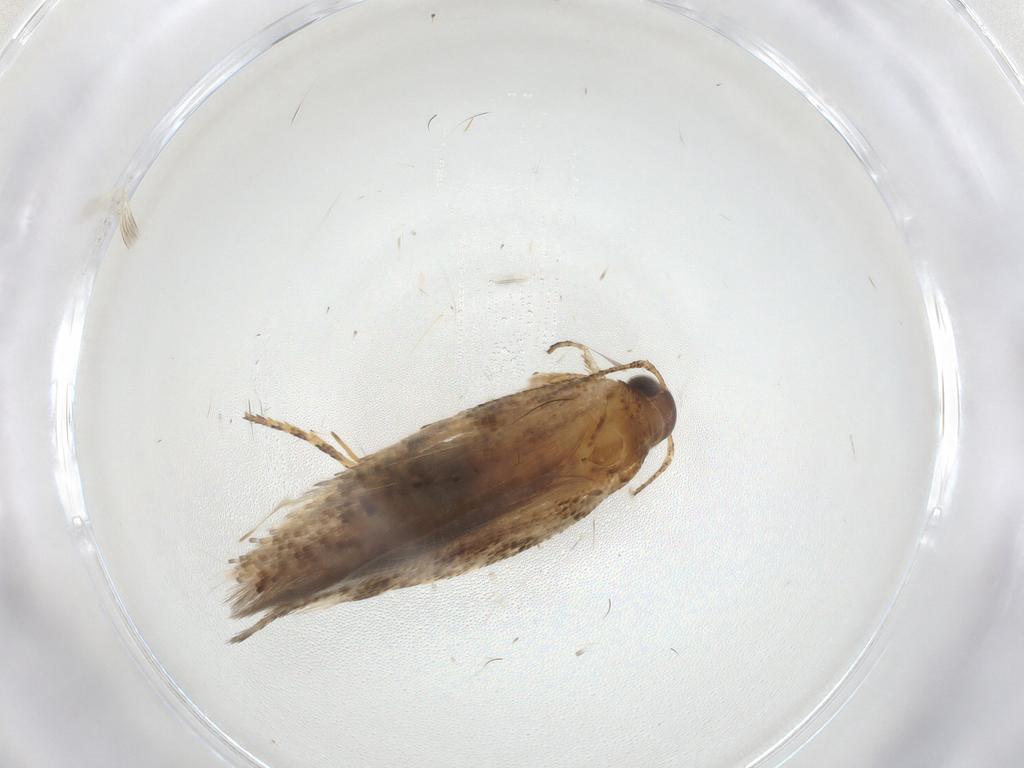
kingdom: Animalia
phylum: Arthropoda
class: Insecta
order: Lepidoptera
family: Gelechiidae
